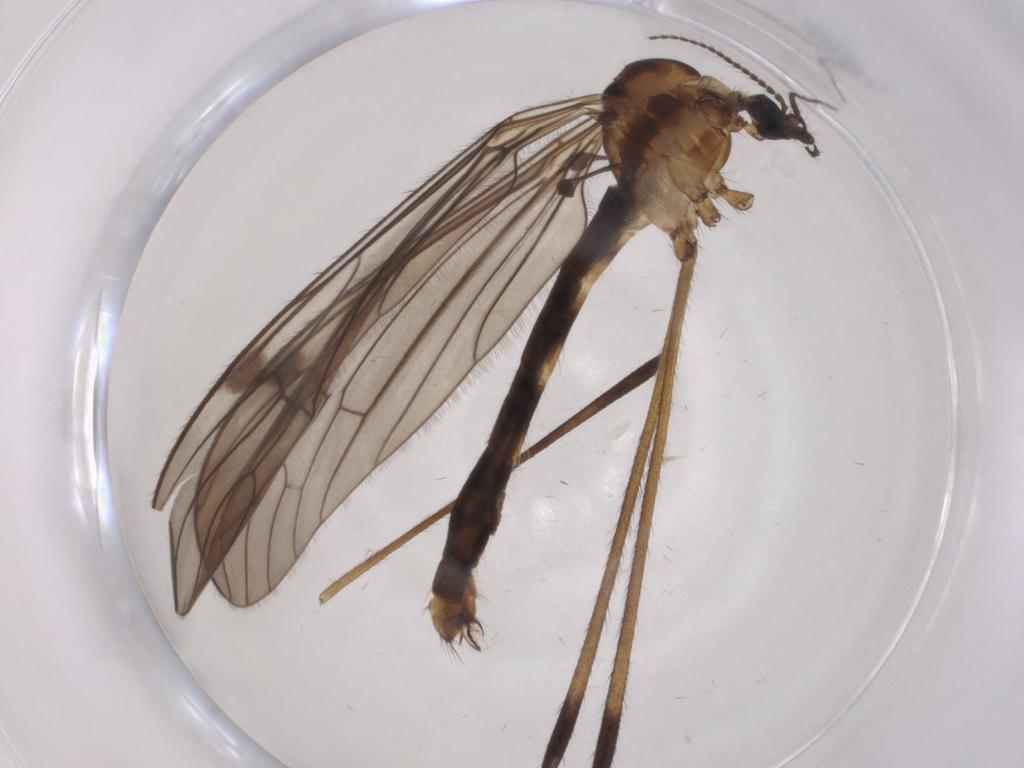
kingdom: Animalia
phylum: Arthropoda
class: Insecta
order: Diptera
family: Limoniidae
